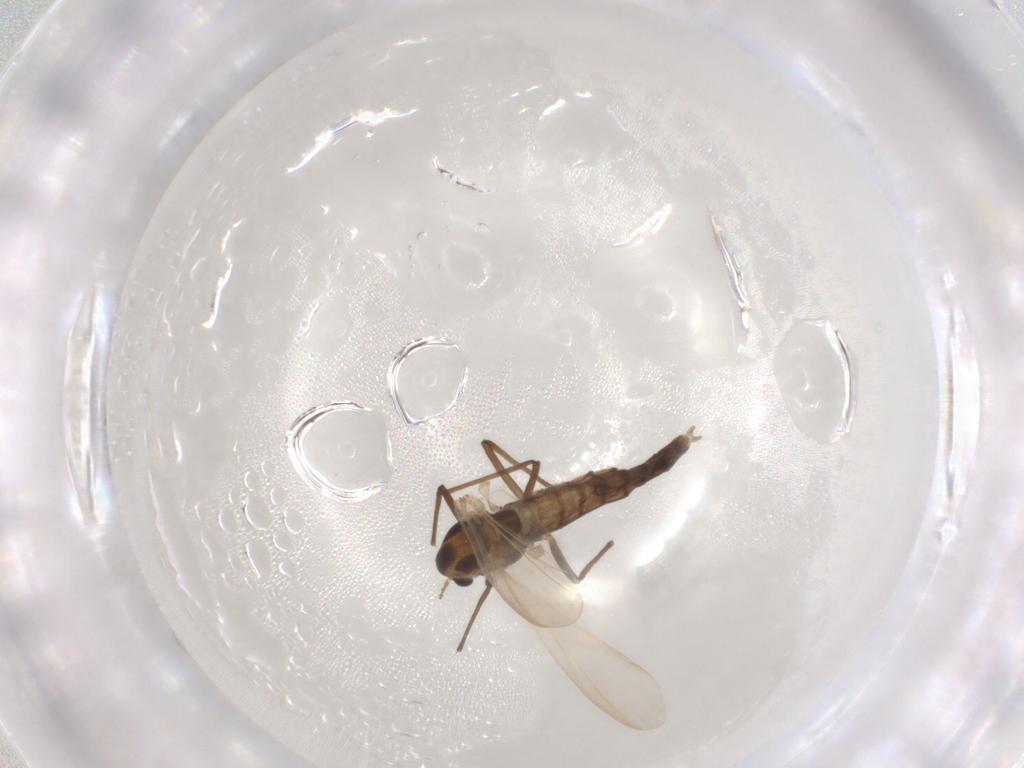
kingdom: Animalia
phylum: Arthropoda
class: Insecta
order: Diptera
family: Chironomidae
